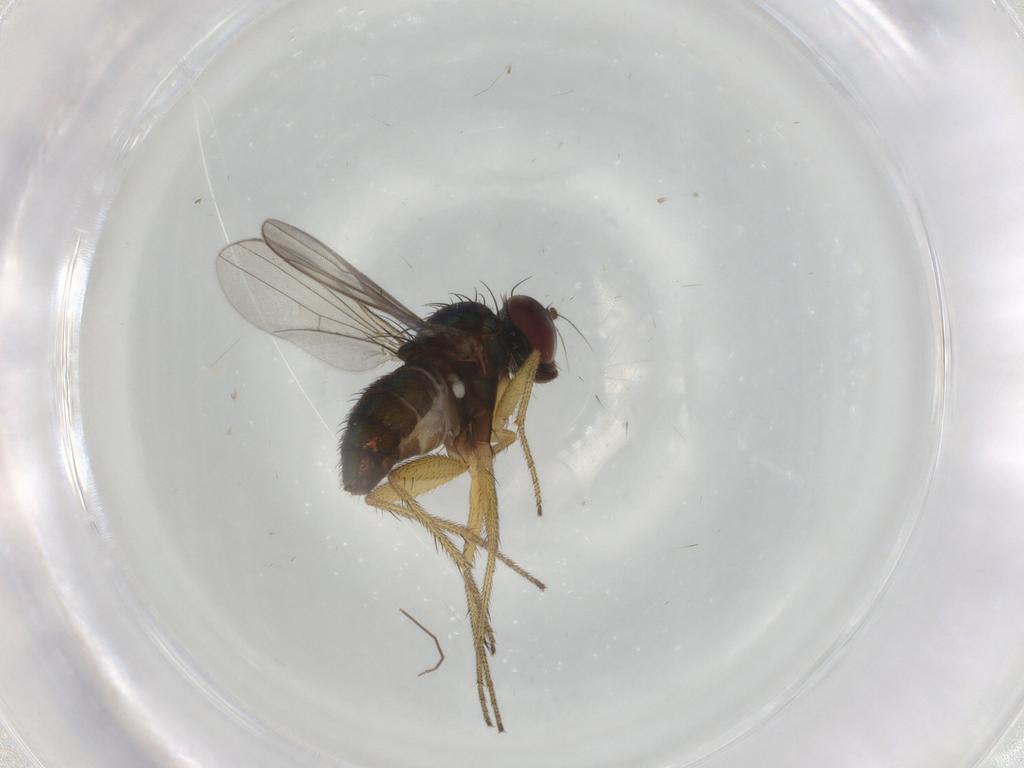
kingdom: Animalia
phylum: Arthropoda
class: Insecta
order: Diptera
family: Dolichopodidae
